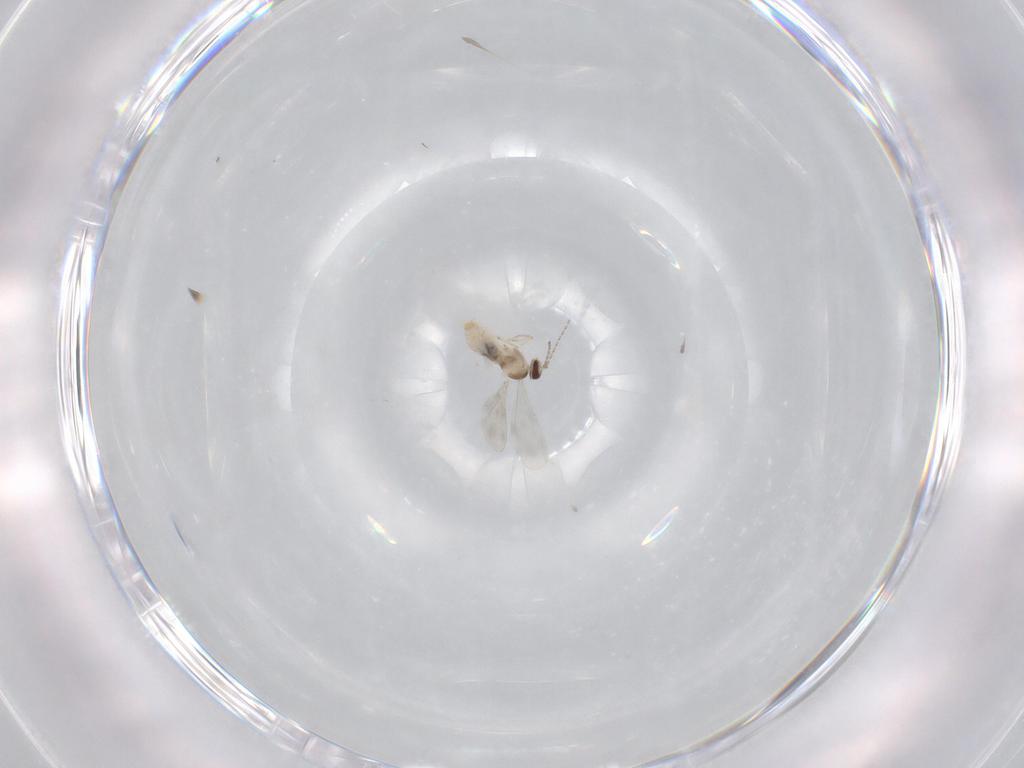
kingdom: Animalia
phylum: Arthropoda
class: Insecta
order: Diptera
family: Cecidomyiidae
